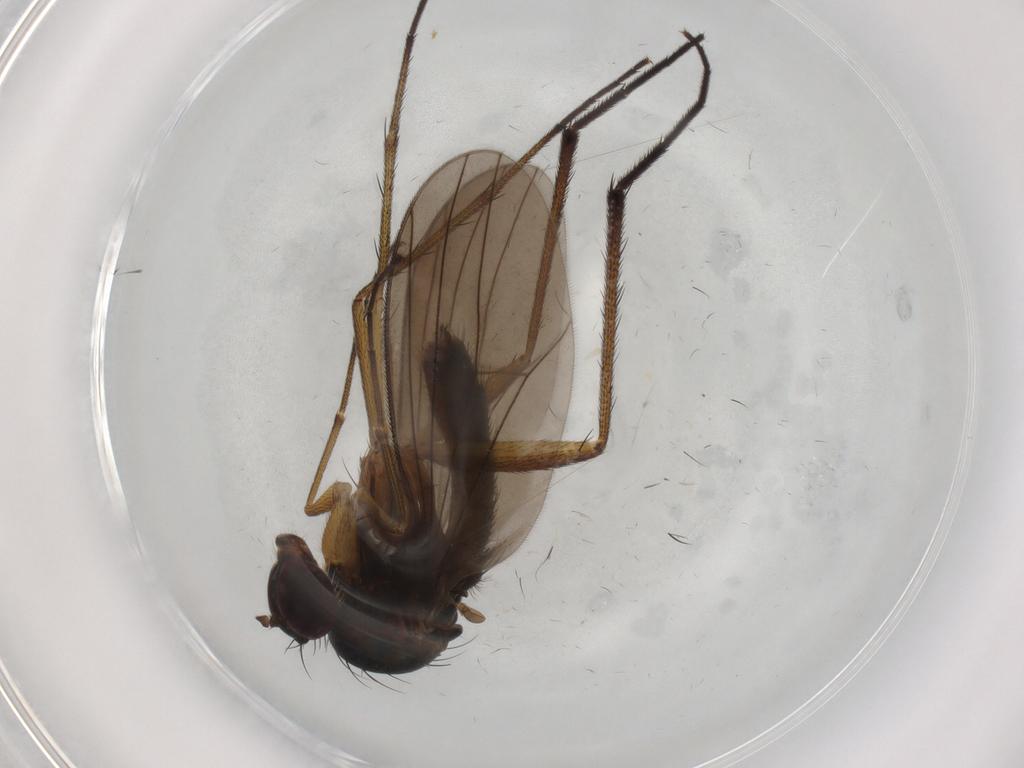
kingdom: Animalia
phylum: Arthropoda
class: Insecta
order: Diptera
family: Dolichopodidae
